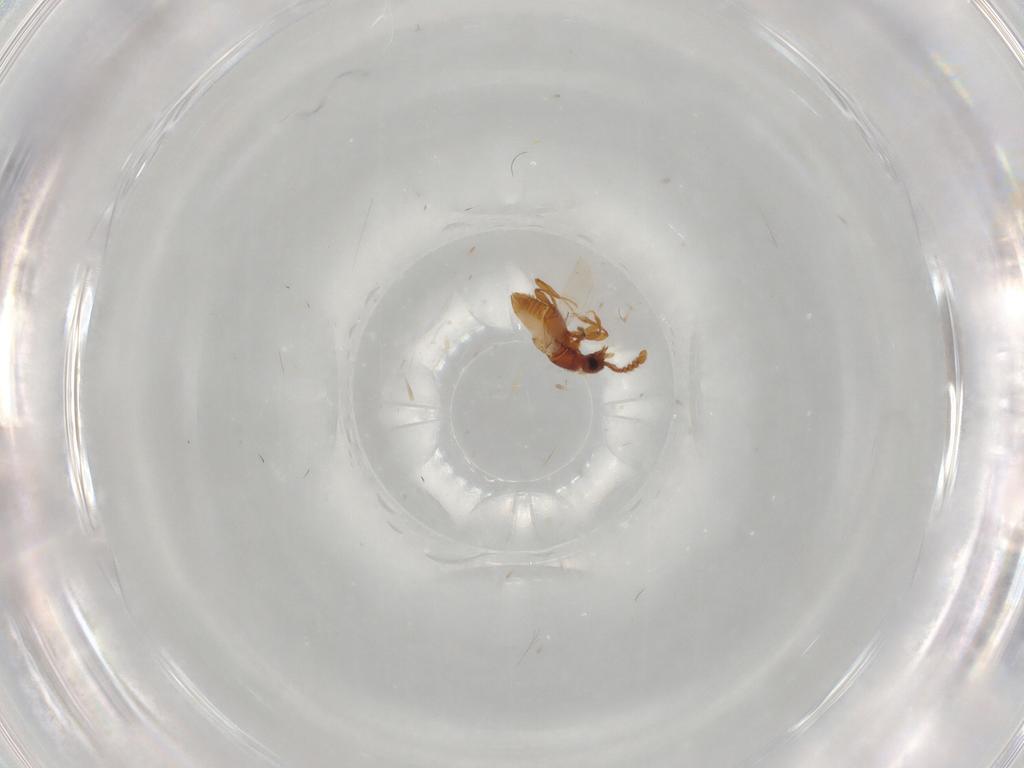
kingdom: Animalia
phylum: Arthropoda
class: Insecta
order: Coleoptera
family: Staphylinidae
